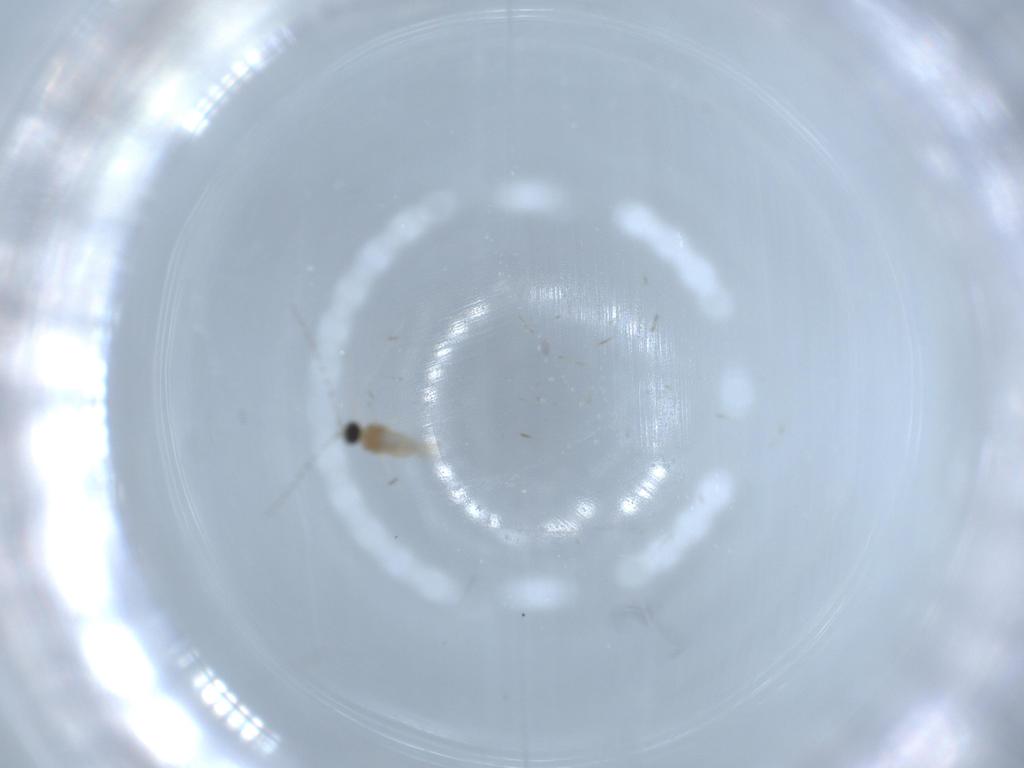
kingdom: Animalia
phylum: Arthropoda
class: Insecta
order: Diptera
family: Cecidomyiidae
